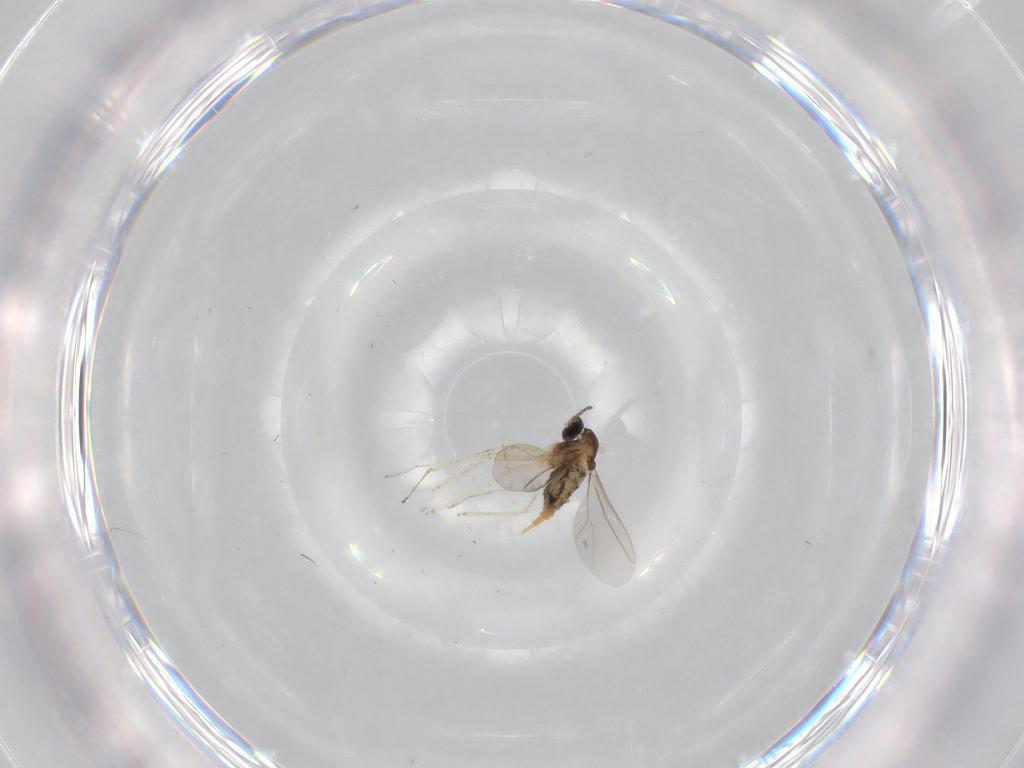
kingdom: Animalia
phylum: Arthropoda
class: Insecta
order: Diptera
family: Cecidomyiidae
